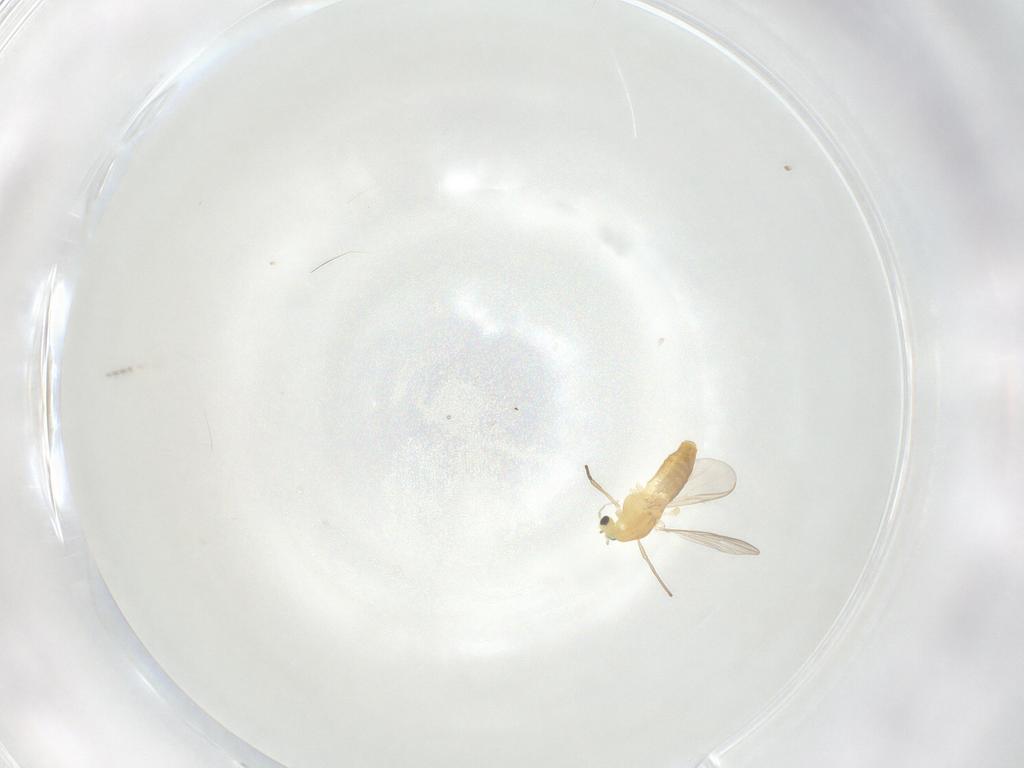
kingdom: Animalia
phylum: Arthropoda
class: Insecta
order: Diptera
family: Chironomidae
